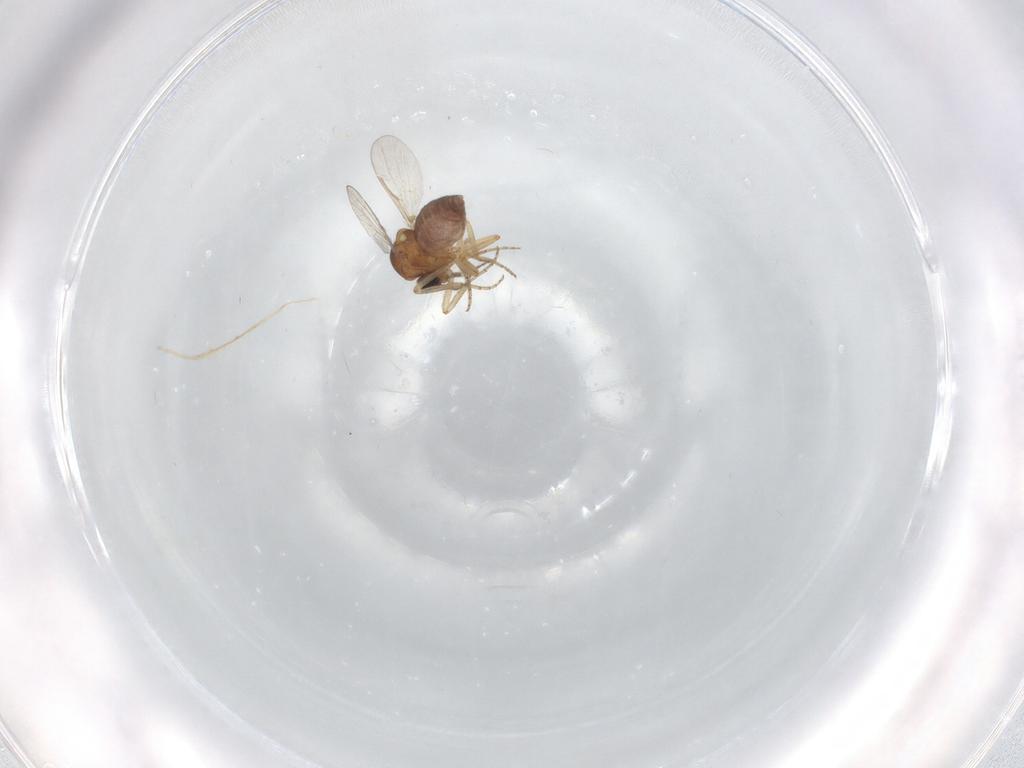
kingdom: Animalia
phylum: Arthropoda
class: Insecta
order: Diptera
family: Ceratopogonidae
